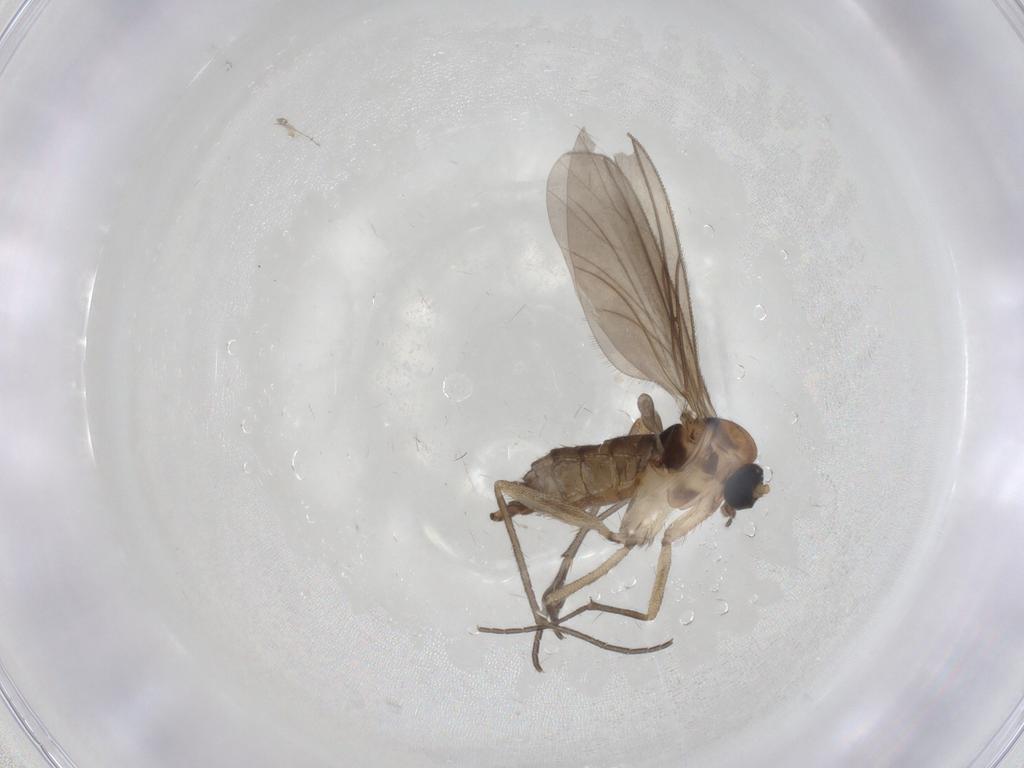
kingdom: Animalia
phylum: Arthropoda
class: Insecta
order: Diptera
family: Sciaridae
